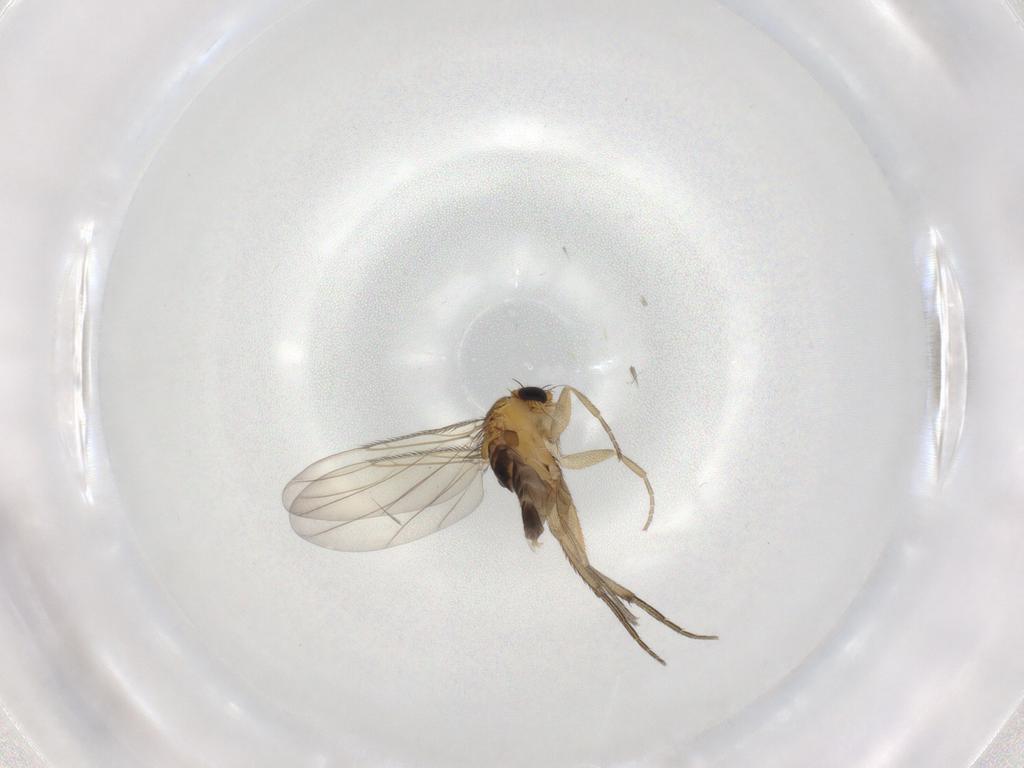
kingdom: Animalia
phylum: Arthropoda
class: Insecta
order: Diptera
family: Phoridae
